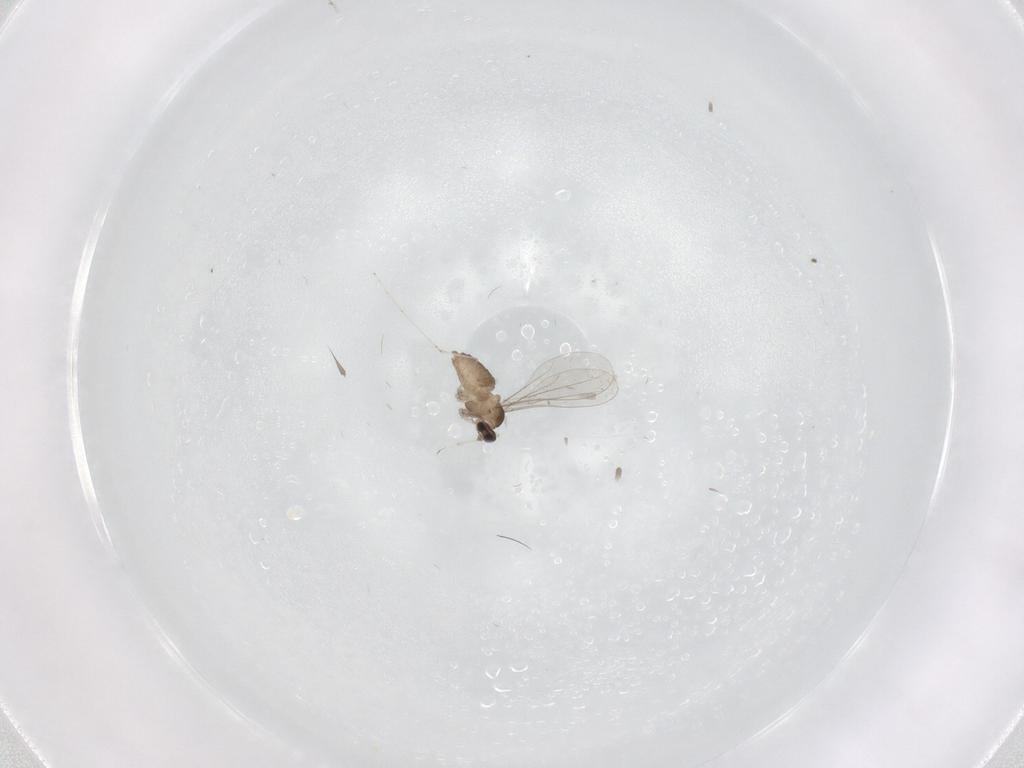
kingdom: Animalia
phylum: Arthropoda
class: Insecta
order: Diptera
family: Cecidomyiidae
